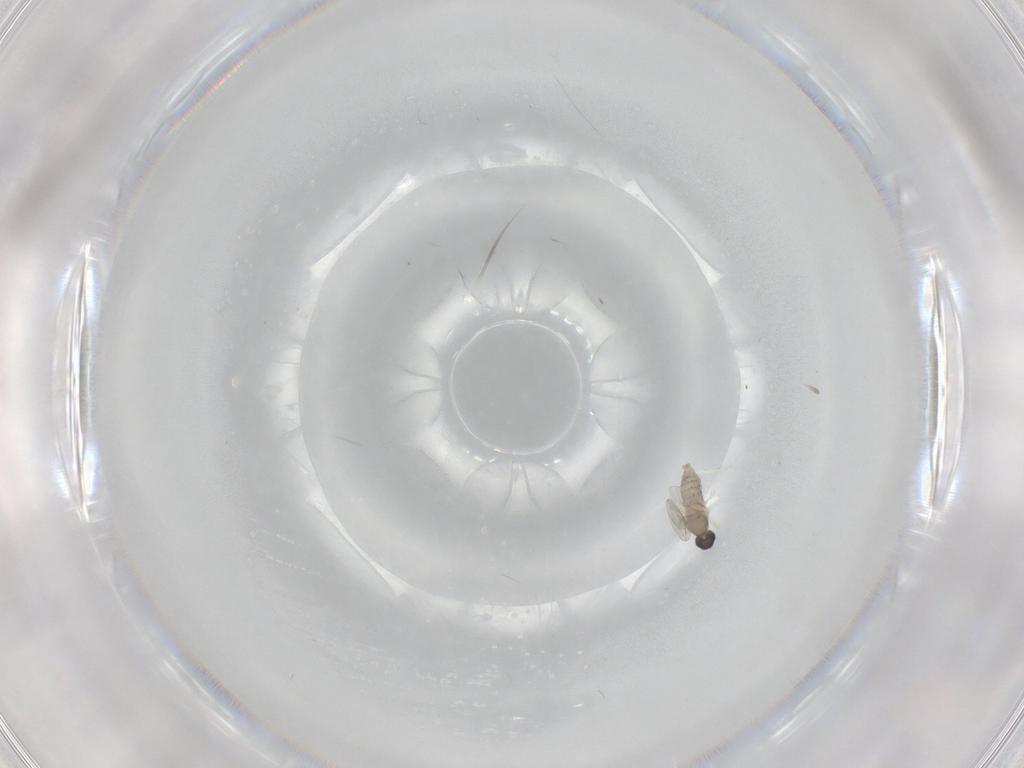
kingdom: Animalia
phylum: Arthropoda
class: Insecta
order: Diptera
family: Cecidomyiidae
